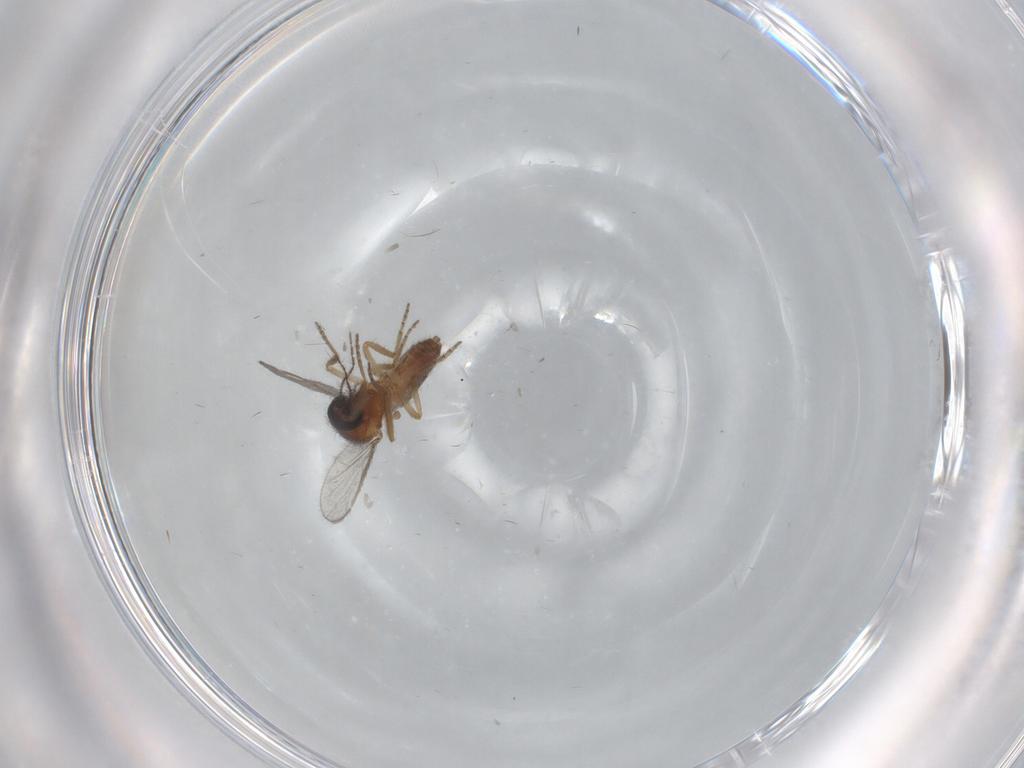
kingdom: Animalia
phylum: Arthropoda
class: Insecta
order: Diptera
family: Ceratopogonidae
